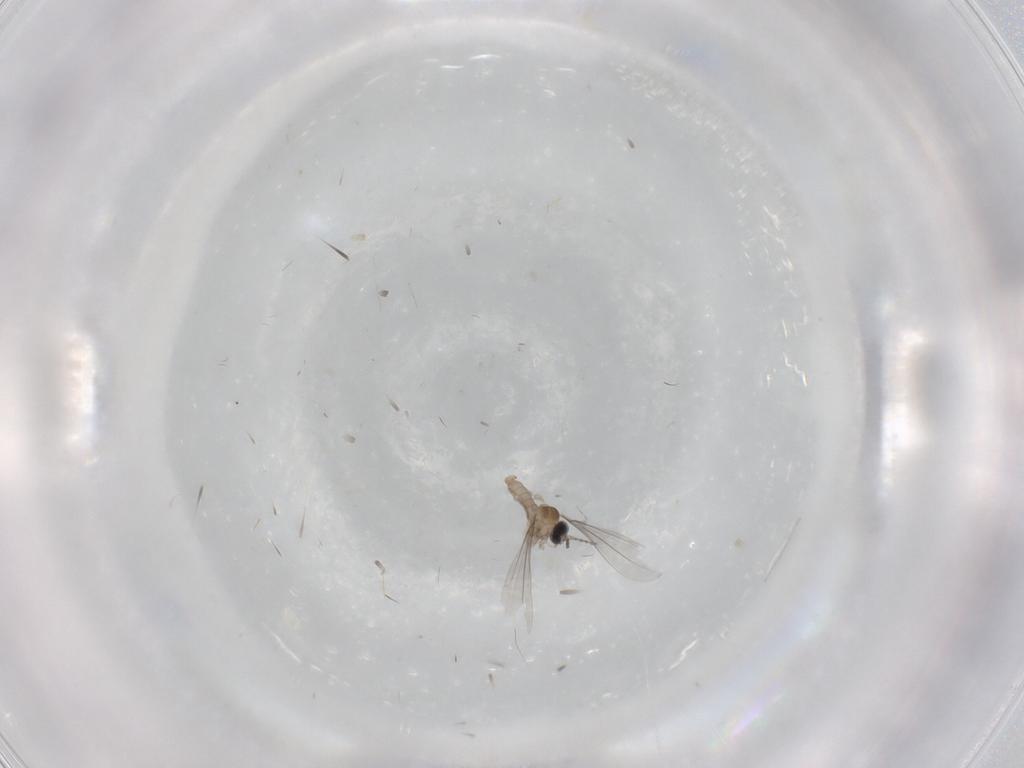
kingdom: Animalia
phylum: Arthropoda
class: Insecta
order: Diptera
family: Cecidomyiidae
